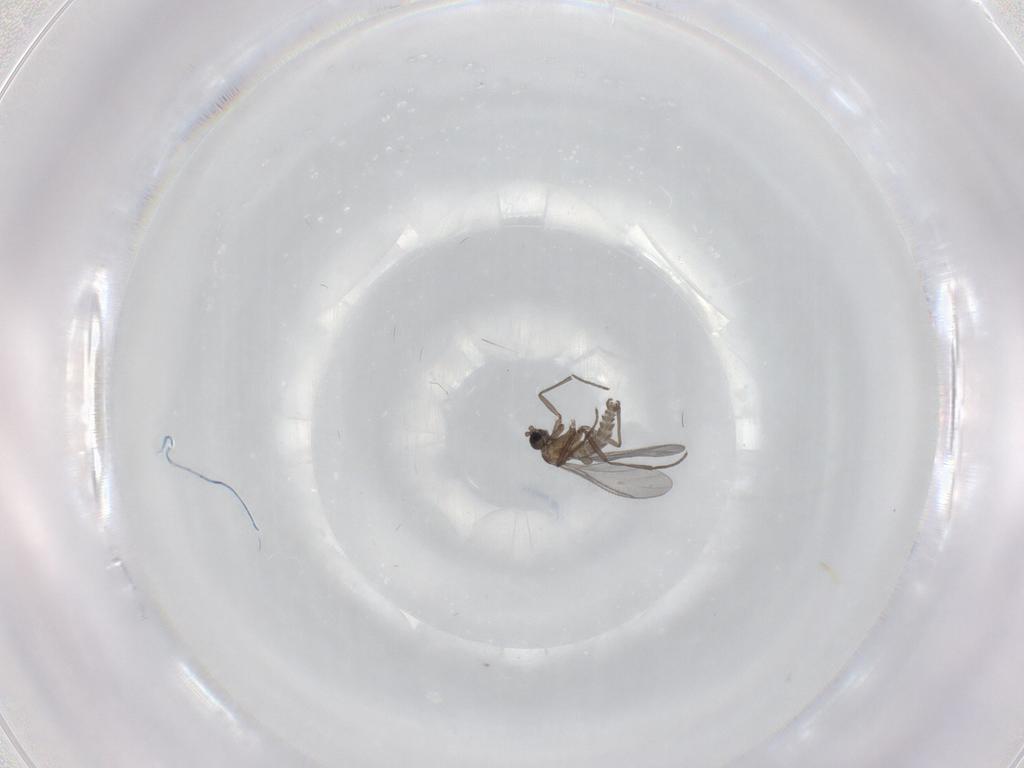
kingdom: Animalia
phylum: Arthropoda
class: Insecta
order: Diptera
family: Sciaridae
